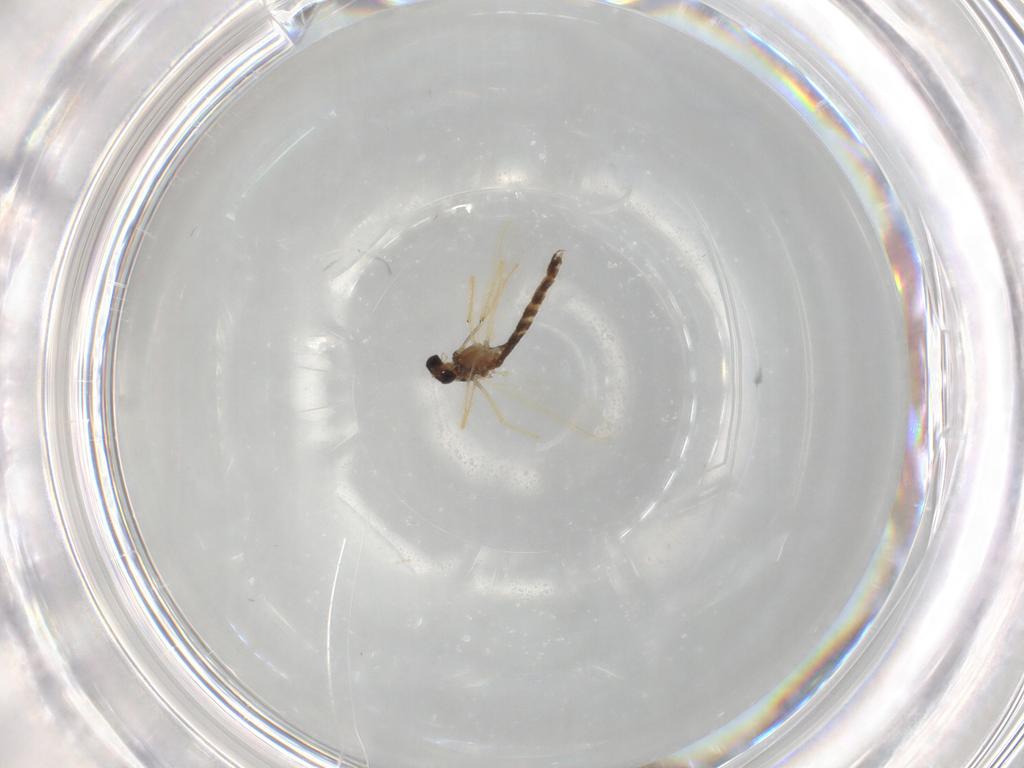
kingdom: Animalia
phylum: Arthropoda
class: Insecta
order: Diptera
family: Chironomidae
